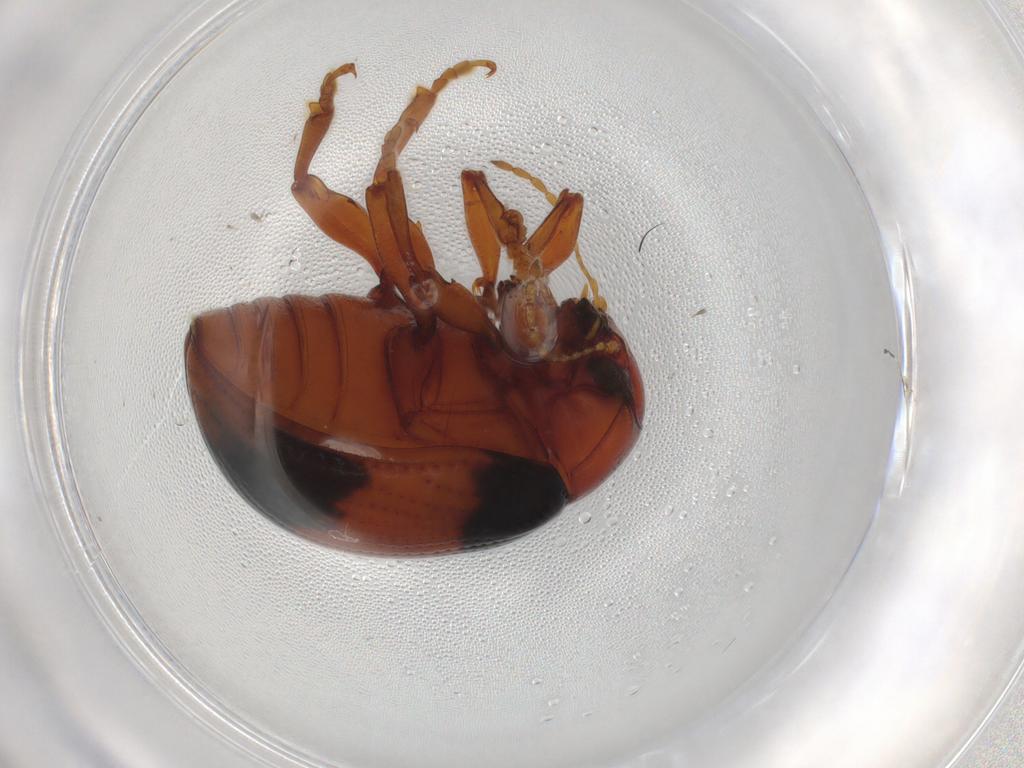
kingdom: Animalia
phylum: Arthropoda
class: Insecta
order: Coleoptera
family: Chrysomelidae
